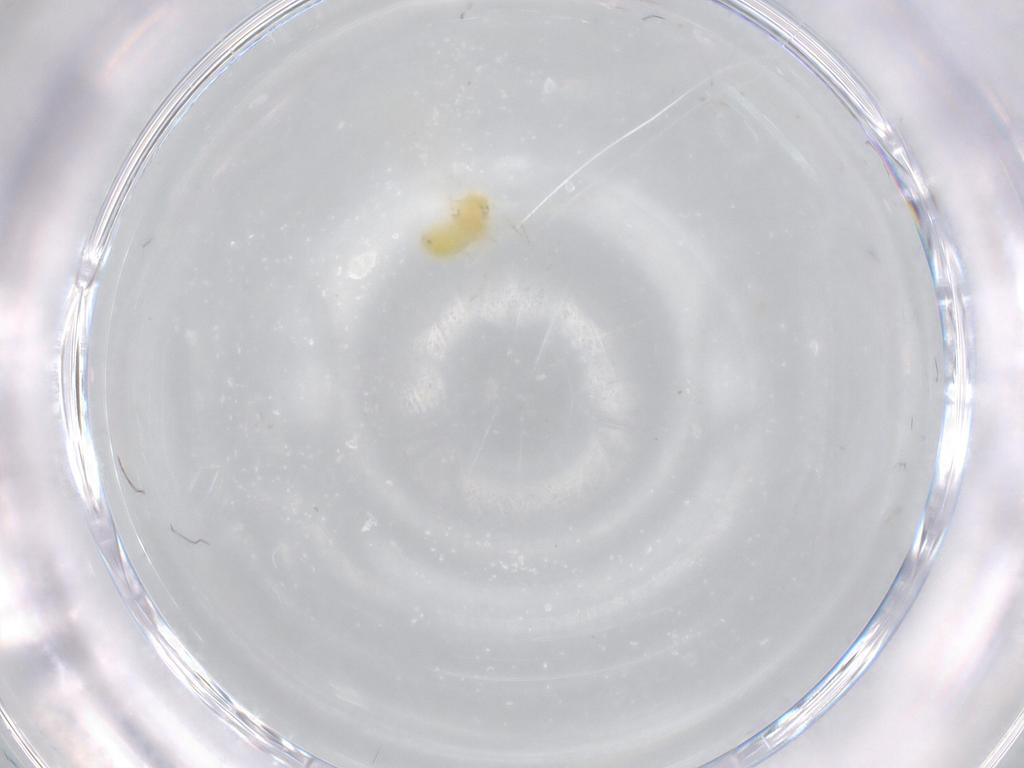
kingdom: Animalia
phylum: Arthropoda
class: Insecta
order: Hemiptera
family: Aleyrodidae
